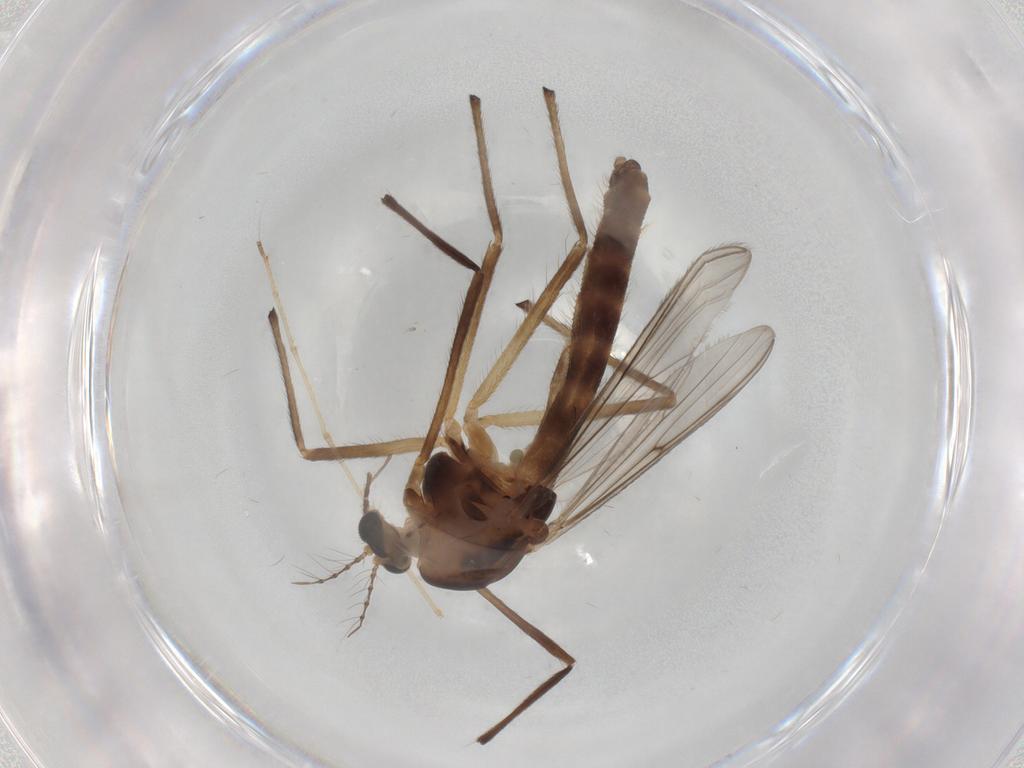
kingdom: Animalia
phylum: Arthropoda
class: Insecta
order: Diptera
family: Chironomidae
